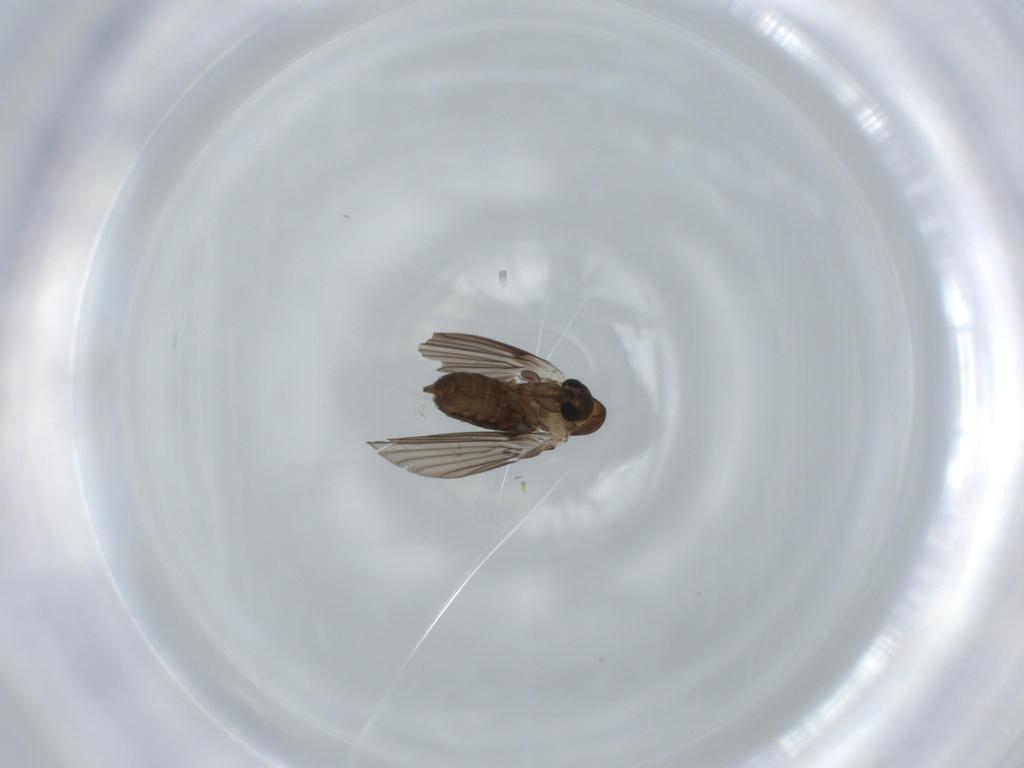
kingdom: Animalia
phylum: Arthropoda
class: Insecta
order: Diptera
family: Psychodidae
